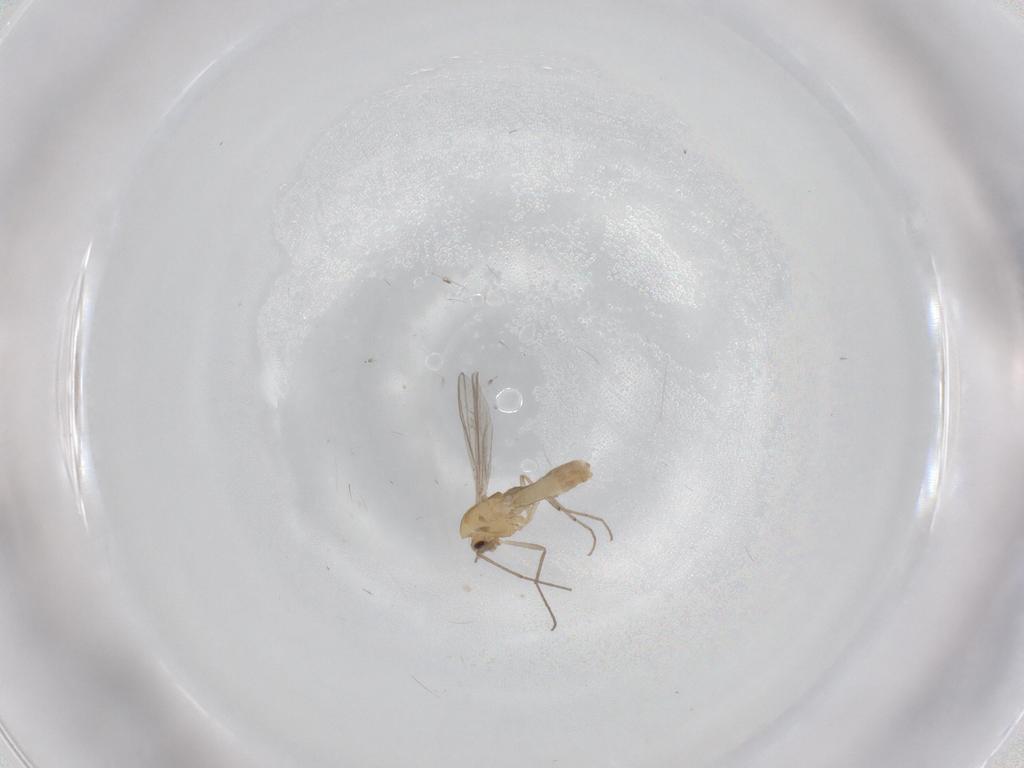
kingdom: Animalia
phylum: Arthropoda
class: Insecta
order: Diptera
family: Chironomidae
